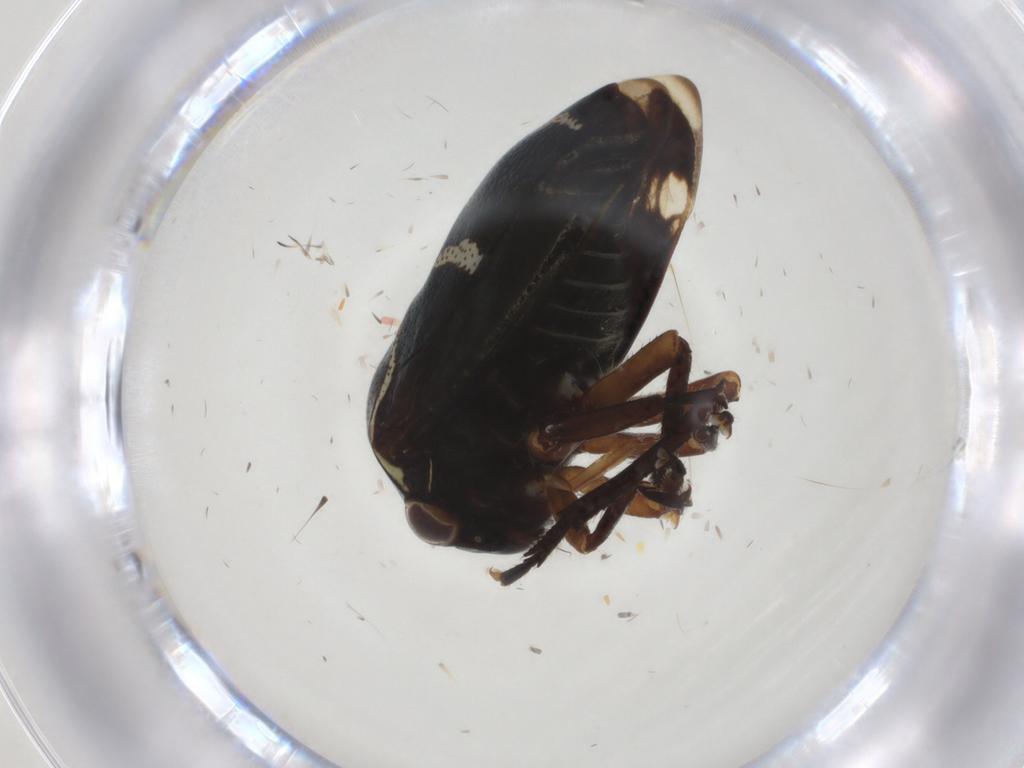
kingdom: Animalia
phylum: Arthropoda
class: Insecta
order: Hemiptera
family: Membracidae
